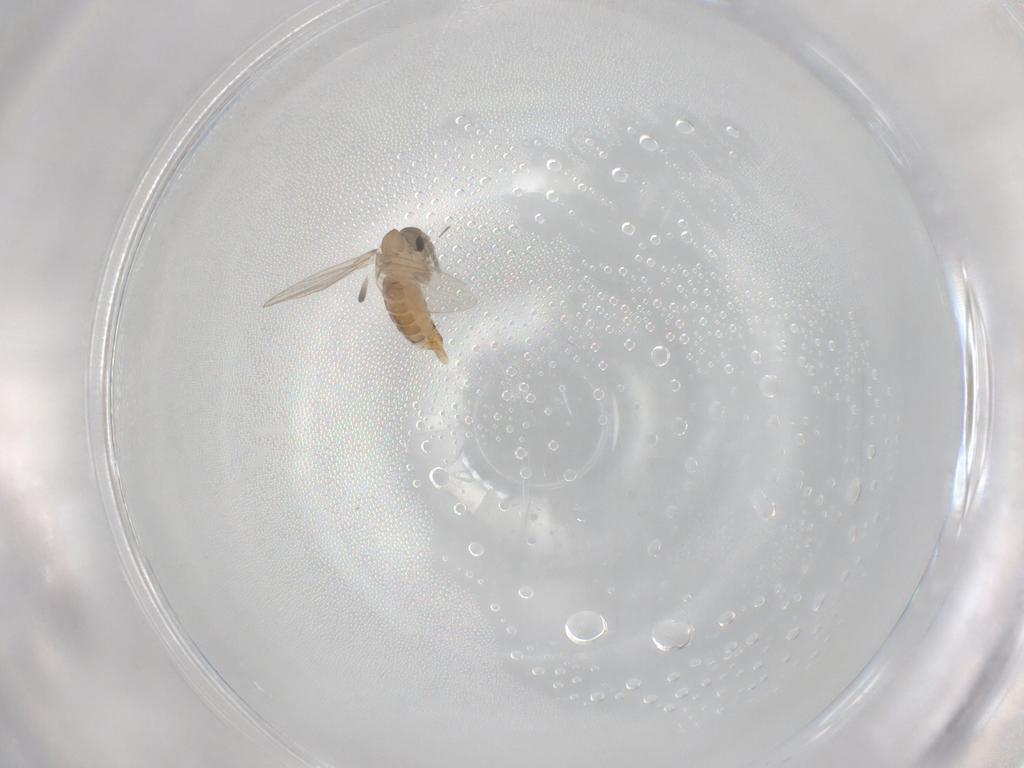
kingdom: Animalia
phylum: Arthropoda
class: Insecta
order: Diptera
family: Psychodidae
